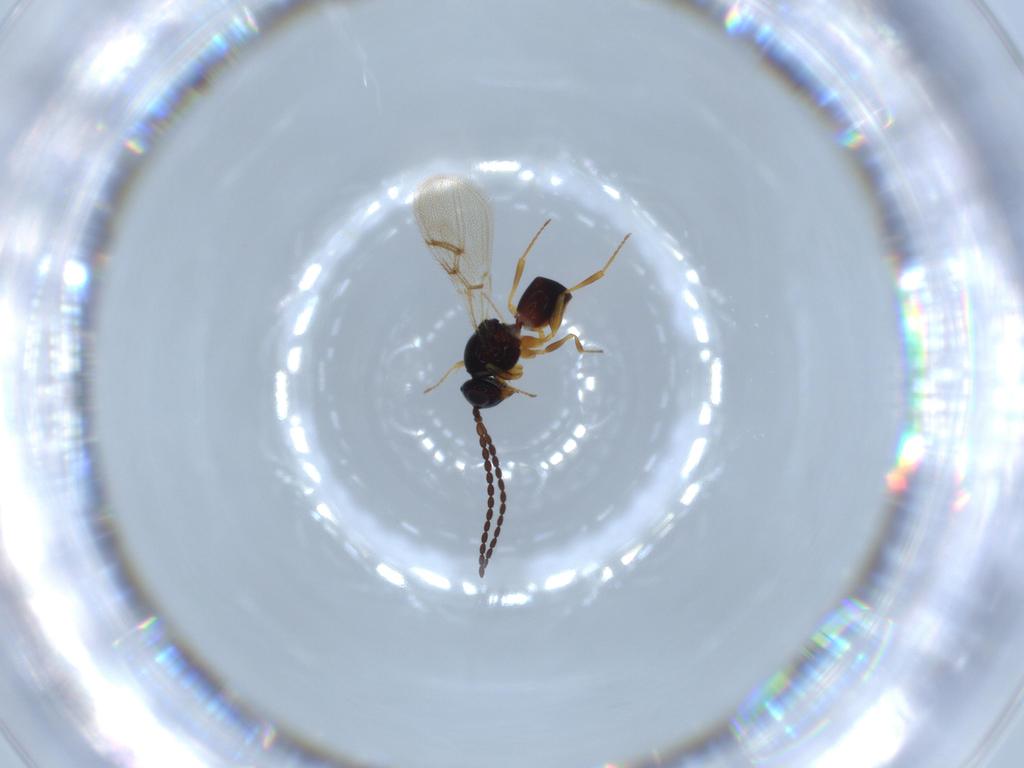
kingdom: Animalia
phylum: Arthropoda
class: Insecta
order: Hymenoptera
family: Figitidae
